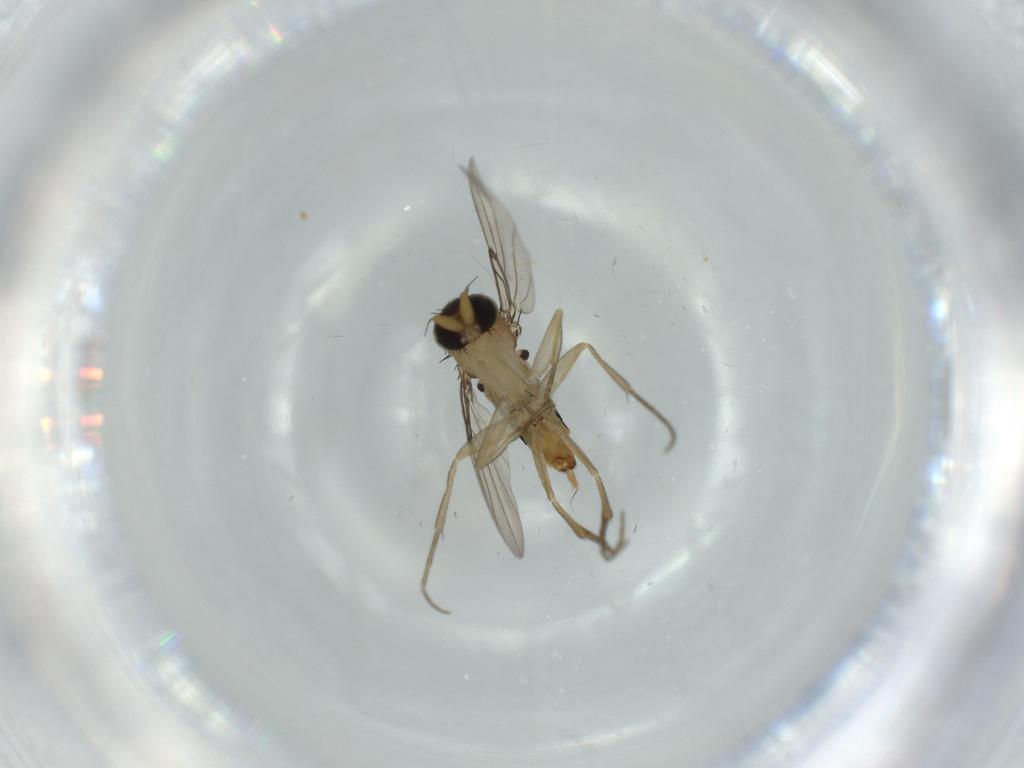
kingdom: Animalia
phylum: Arthropoda
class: Insecta
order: Diptera
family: Phoridae
